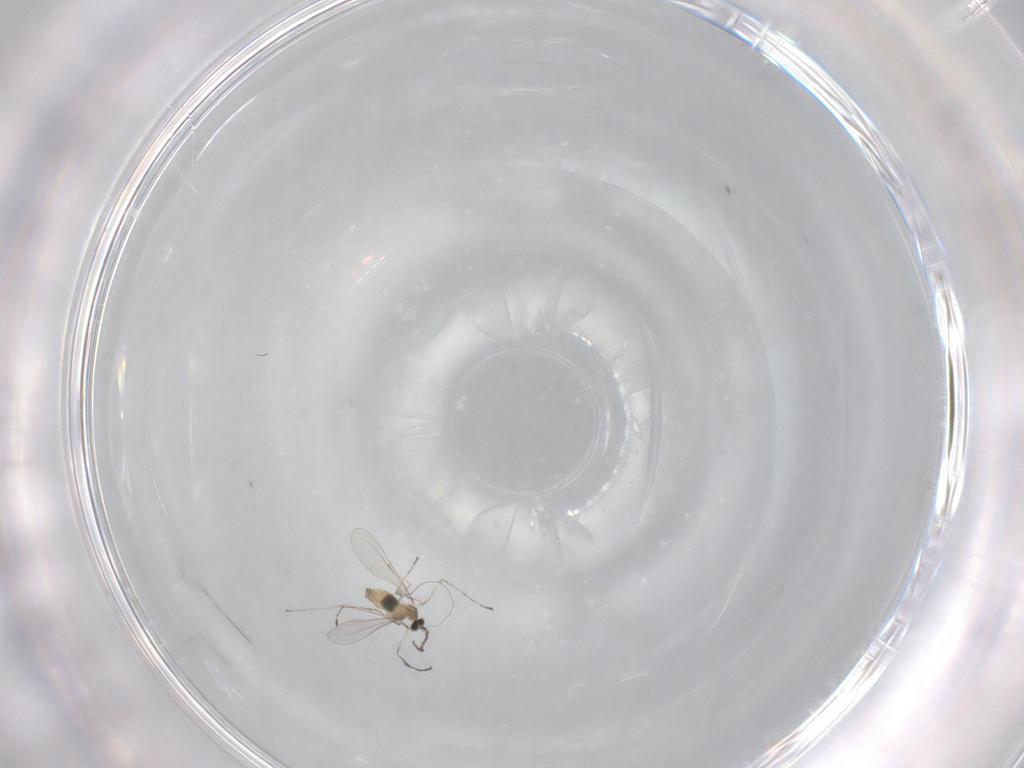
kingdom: Animalia
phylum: Arthropoda
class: Insecta
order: Diptera
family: Cecidomyiidae
